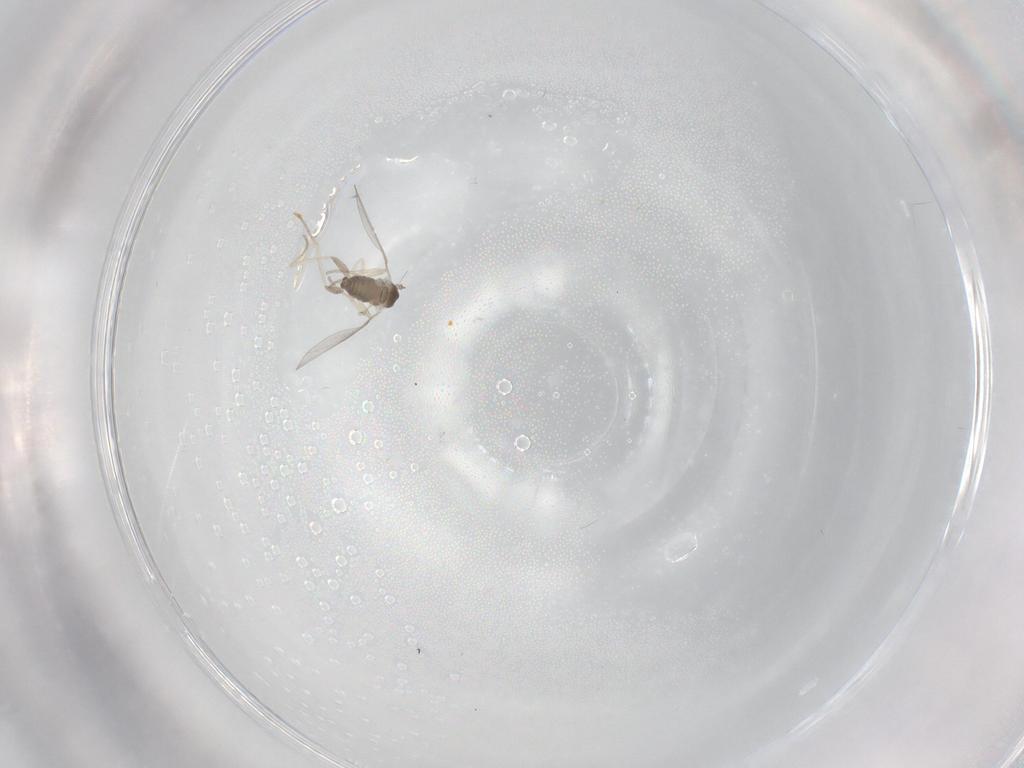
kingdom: Animalia
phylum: Arthropoda
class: Insecta
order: Diptera
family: Cecidomyiidae
